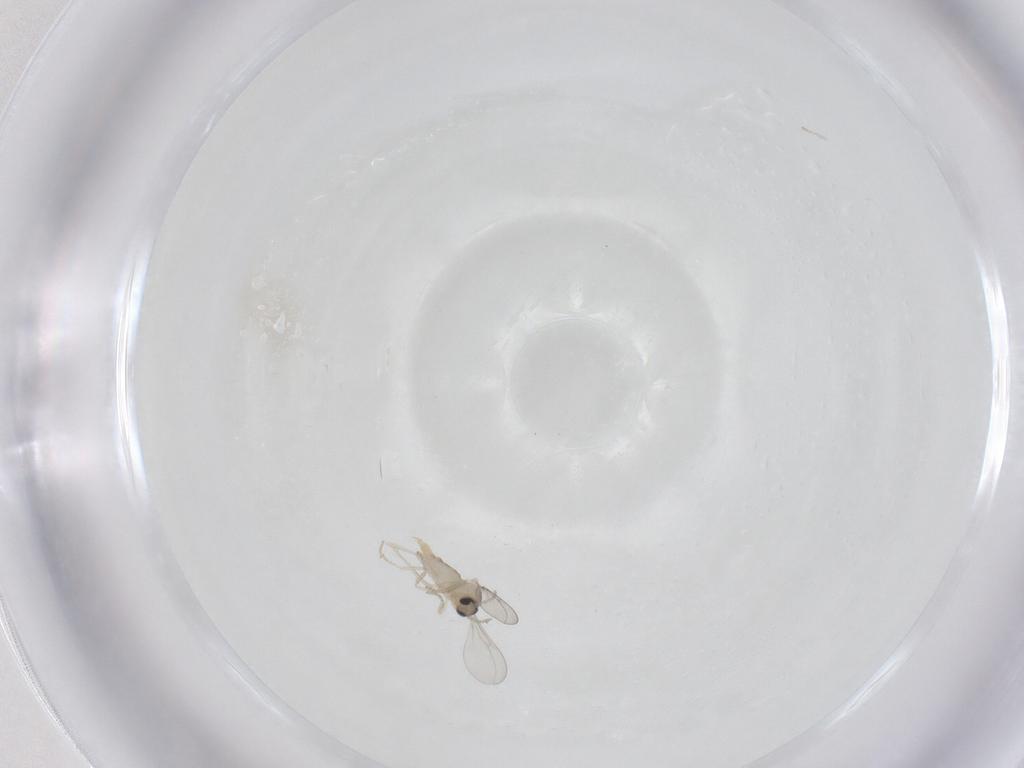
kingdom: Animalia
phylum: Arthropoda
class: Insecta
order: Diptera
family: Cecidomyiidae
